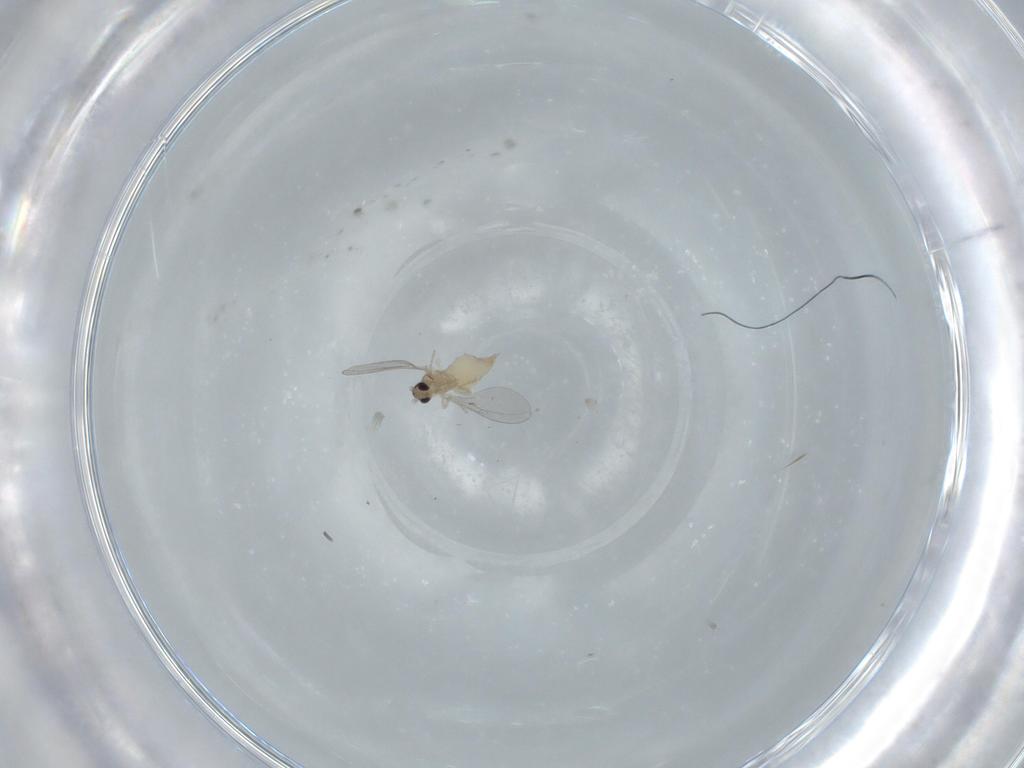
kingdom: Animalia
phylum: Arthropoda
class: Insecta
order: Diptera
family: Cecidomyiidae
